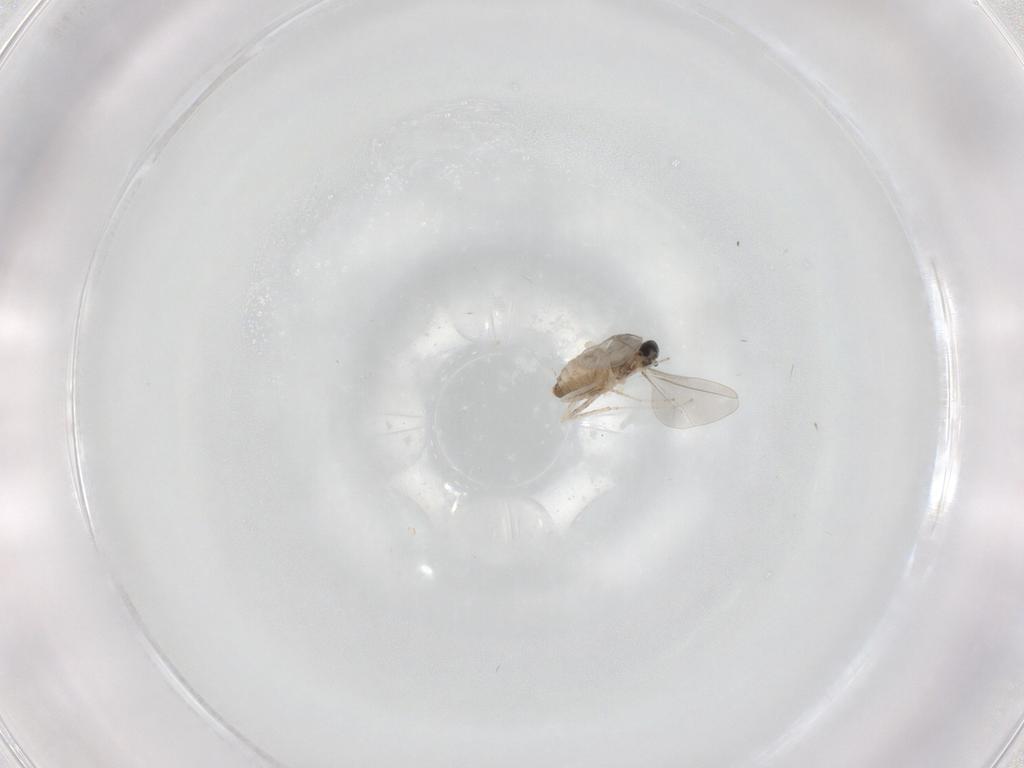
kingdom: Animalia
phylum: Arthropoda
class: Insecta
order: Diptera
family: Cecidomyiidae
